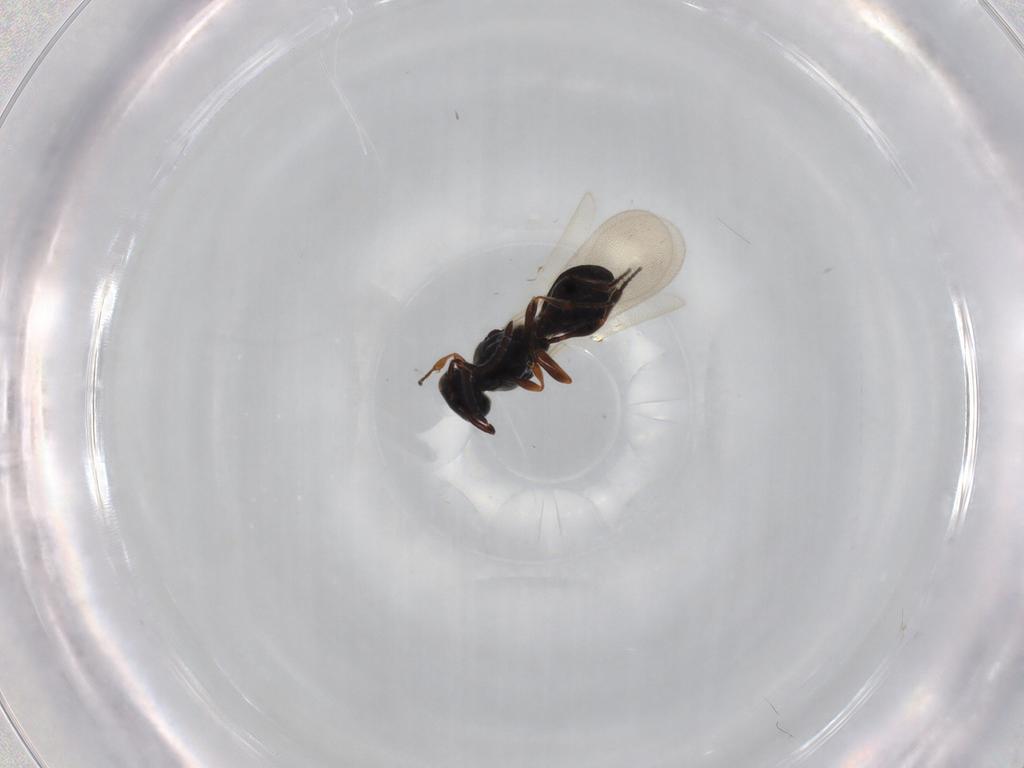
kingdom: Animalia
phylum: Arthropoda
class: Insecta
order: Hymenoptera
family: Platygastridae
